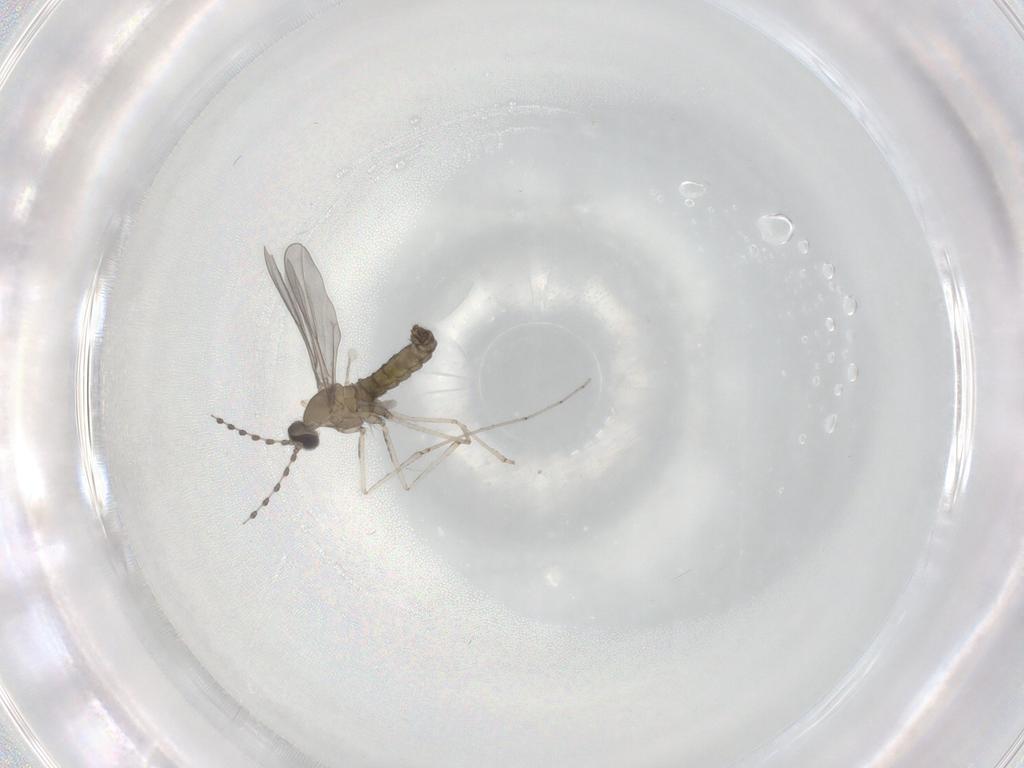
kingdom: Animalia
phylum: Arthropoda
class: Insecta
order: Diptera
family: Chironomidae
